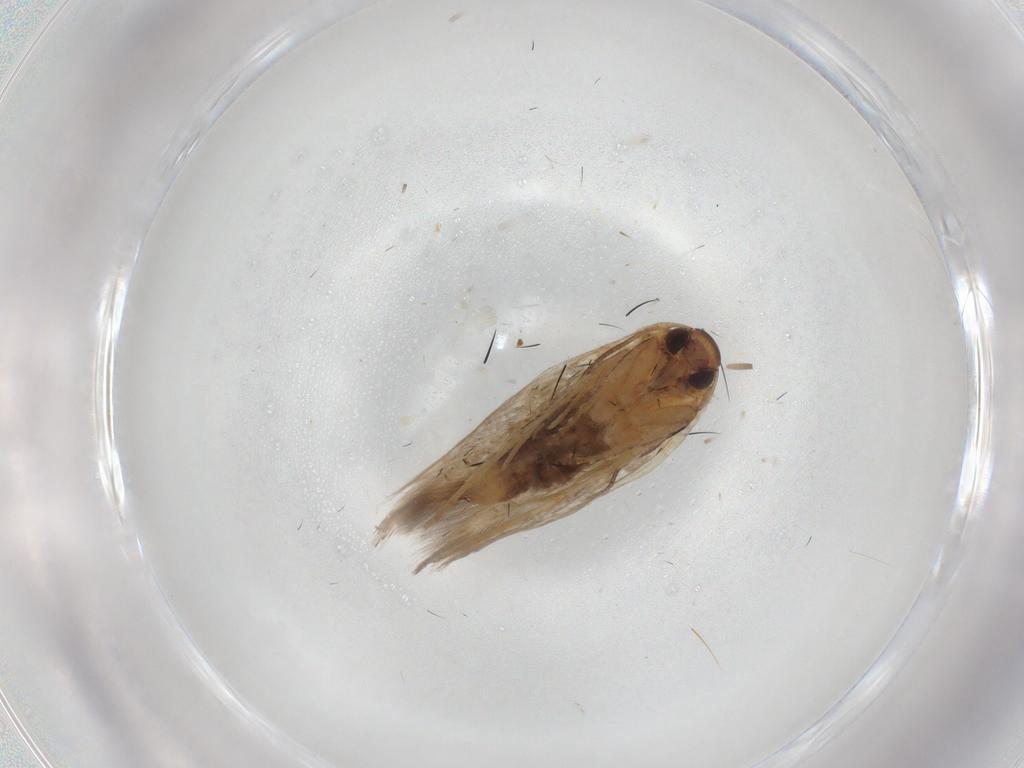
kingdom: Animalia
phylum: Arthropoda
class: Insecta
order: Lepidoptera
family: Cosmopterigidae
